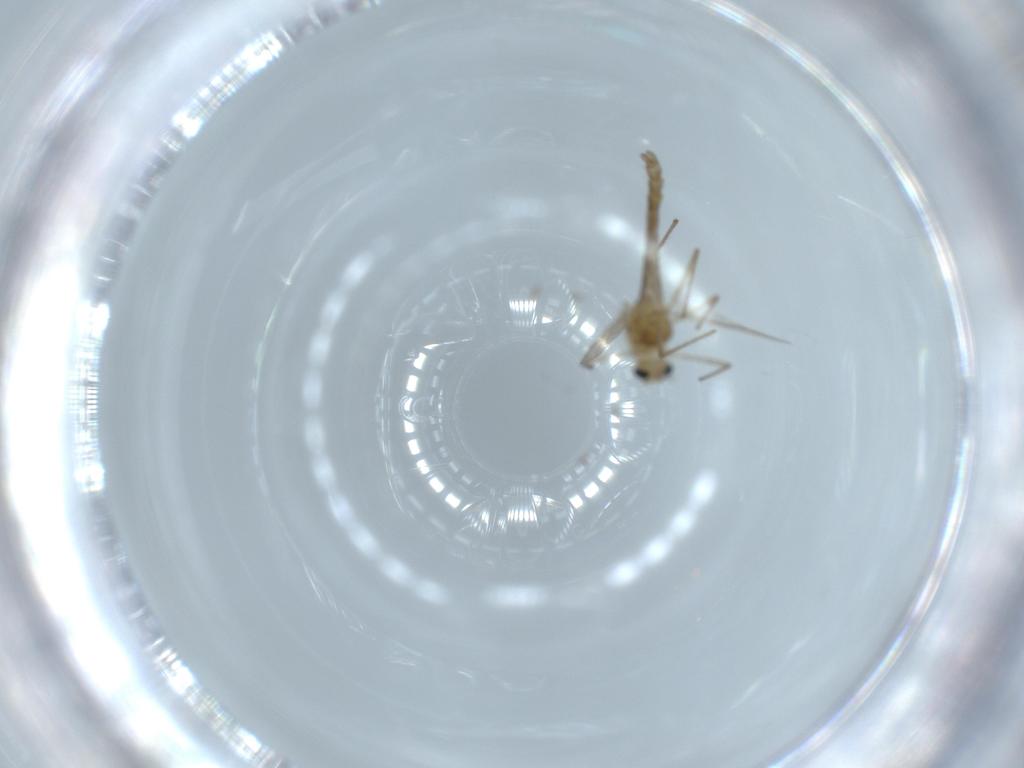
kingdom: Animalia
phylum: Arthropoda
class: Insecta
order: Diptera
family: Chironomidae
